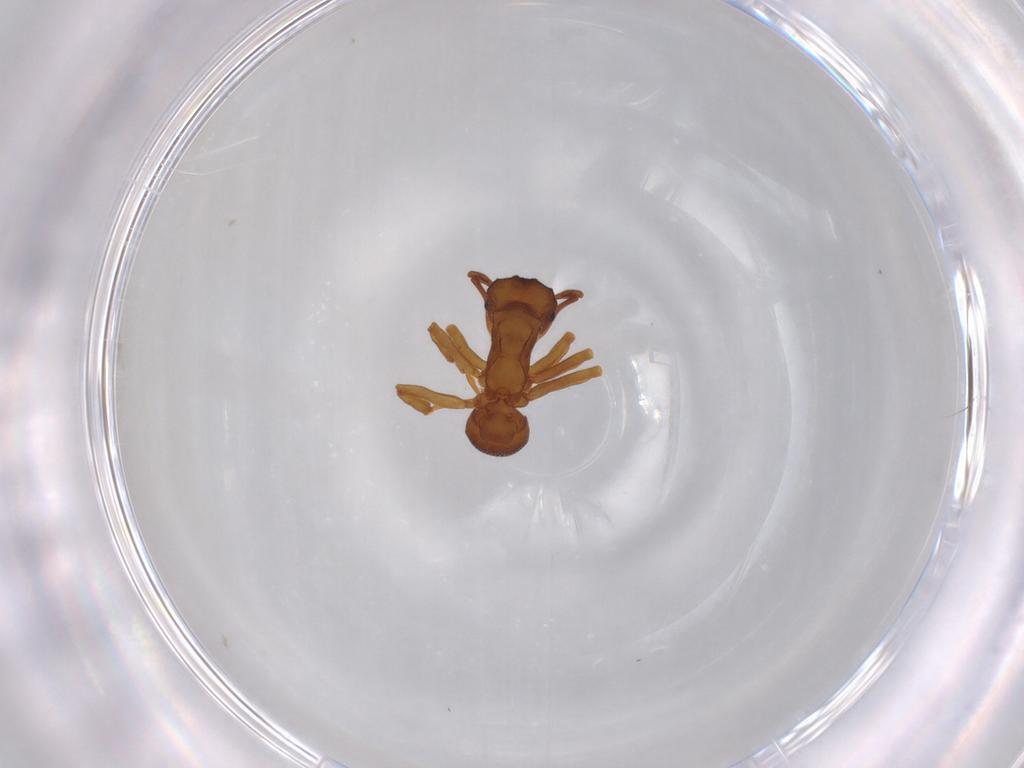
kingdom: Animalia
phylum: Arthropoda
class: Insecta
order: Hymenoptera
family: Formicidae
